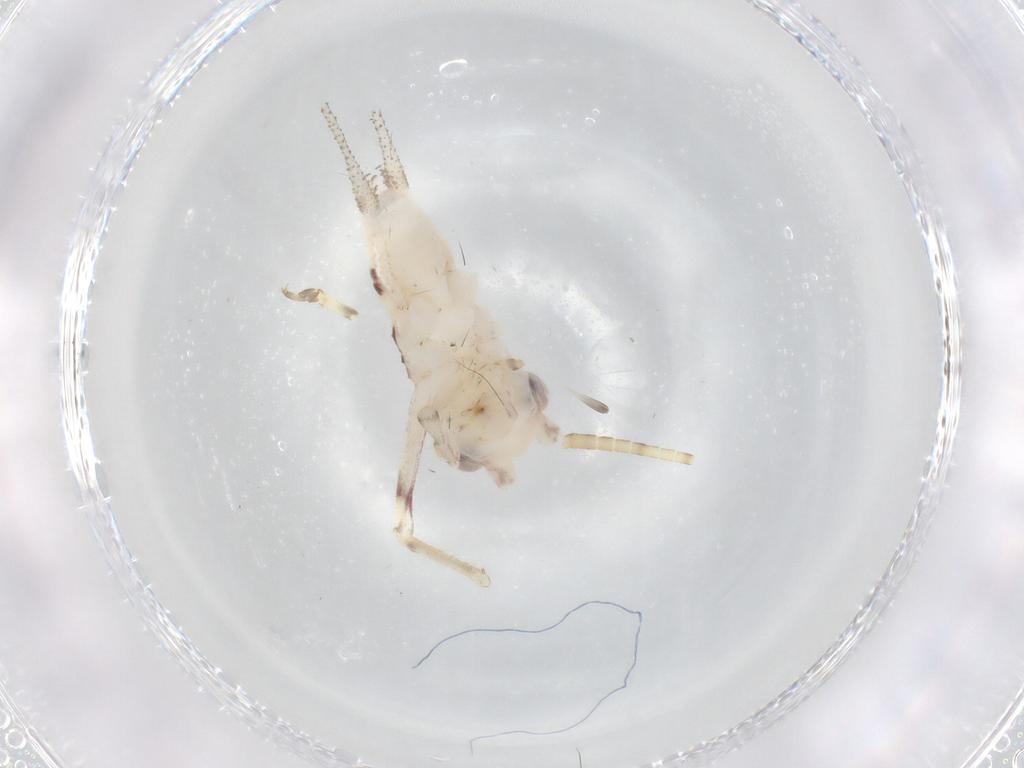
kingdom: Animalia
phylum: Arthropoda
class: Insecta
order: Orthoptera
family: Trigonidiidae
